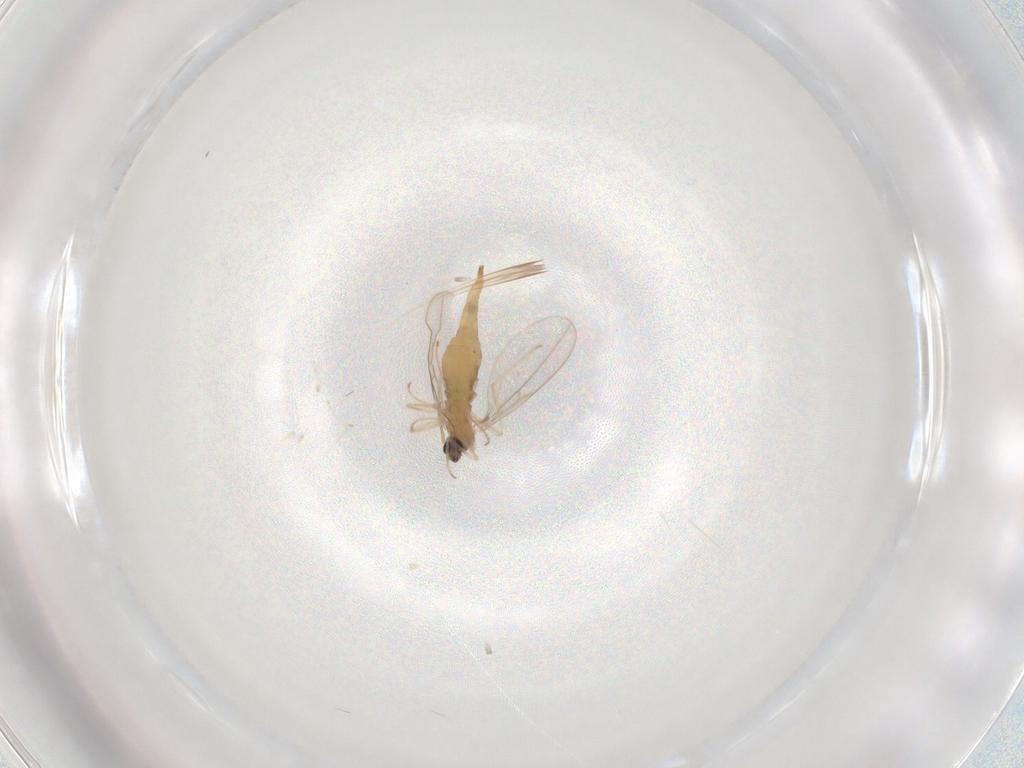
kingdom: Animalia
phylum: Arthropoda
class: Insecta
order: Diptera
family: Cecidomyiidae
